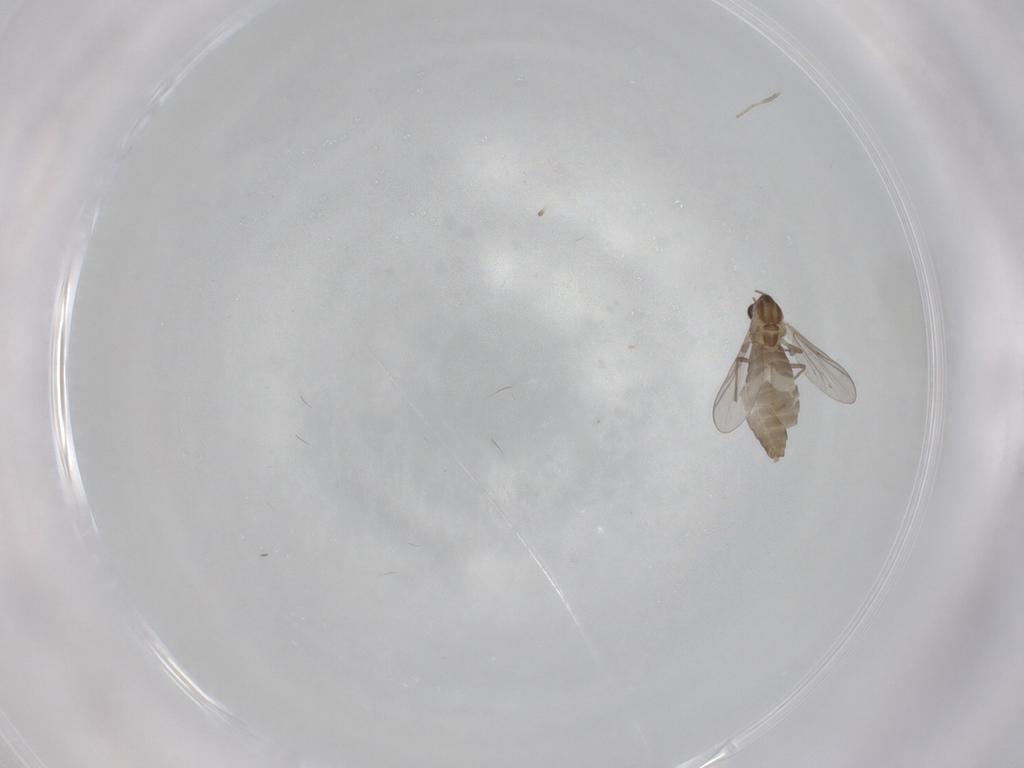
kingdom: Animalia
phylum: Arthropoda
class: Insecta
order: Diptera
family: Chironomidae
